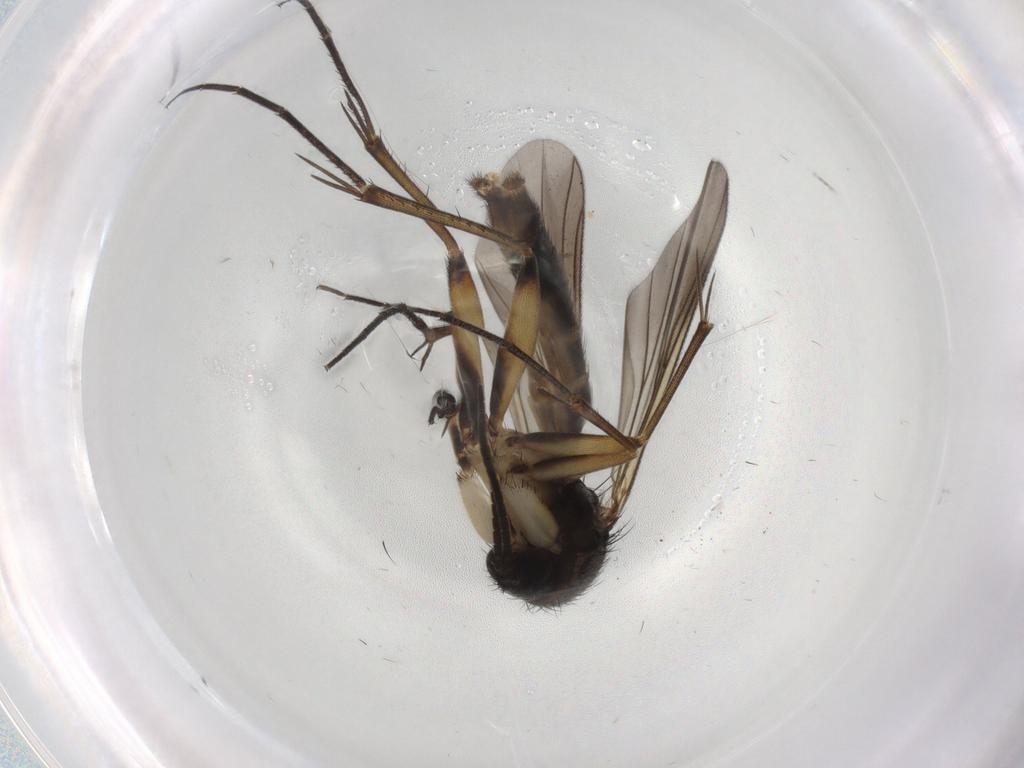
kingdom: Animalia
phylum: Arthropoda
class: Insecta
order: Diptera
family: Mycetophilidae
